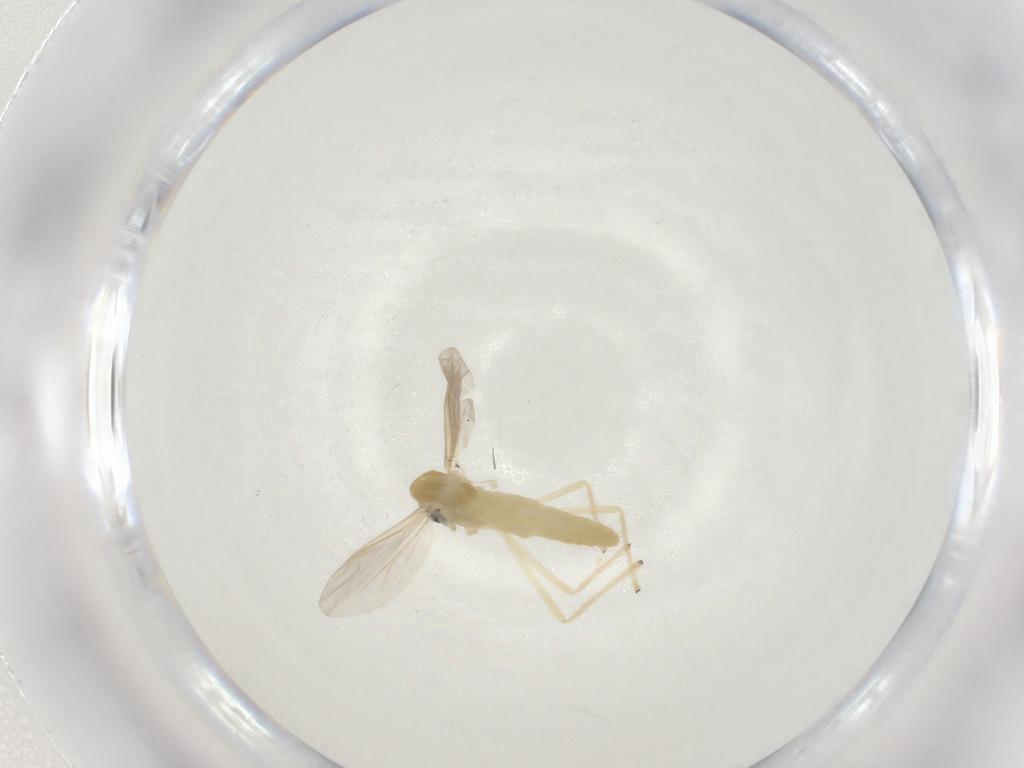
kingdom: Animalia
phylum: Arthropoda
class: Insecta
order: Diptera
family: Chironomidae
